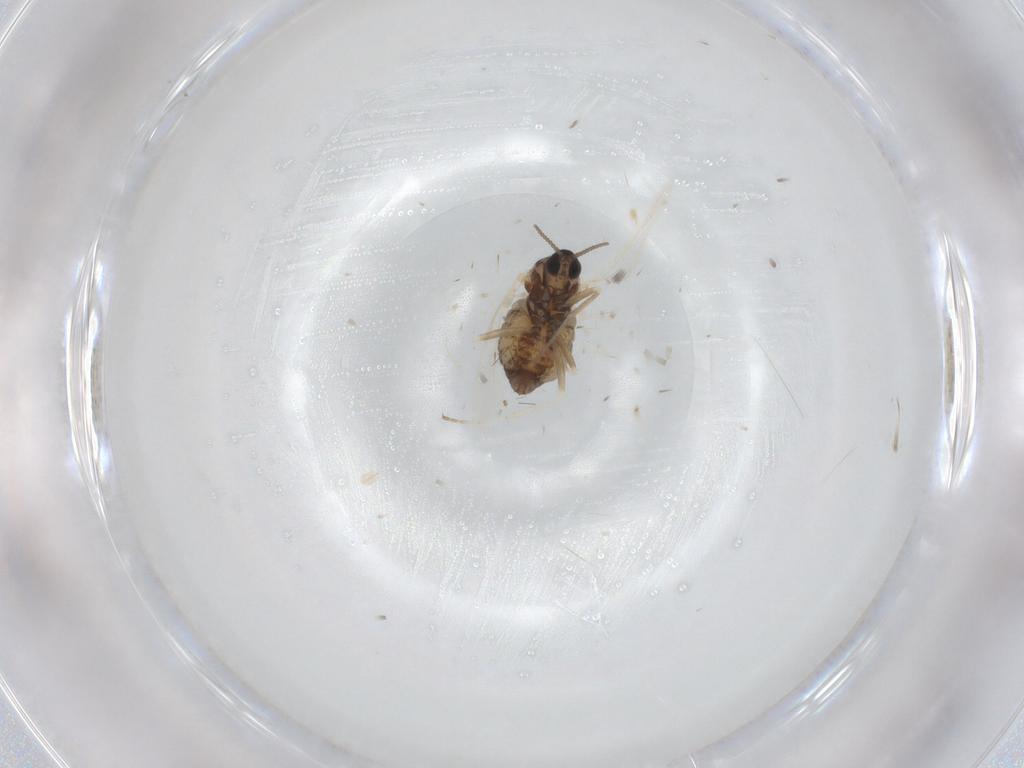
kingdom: Animalia
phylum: Arthropoda
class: Insecta
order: Diptera
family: Cecidomyiidae
